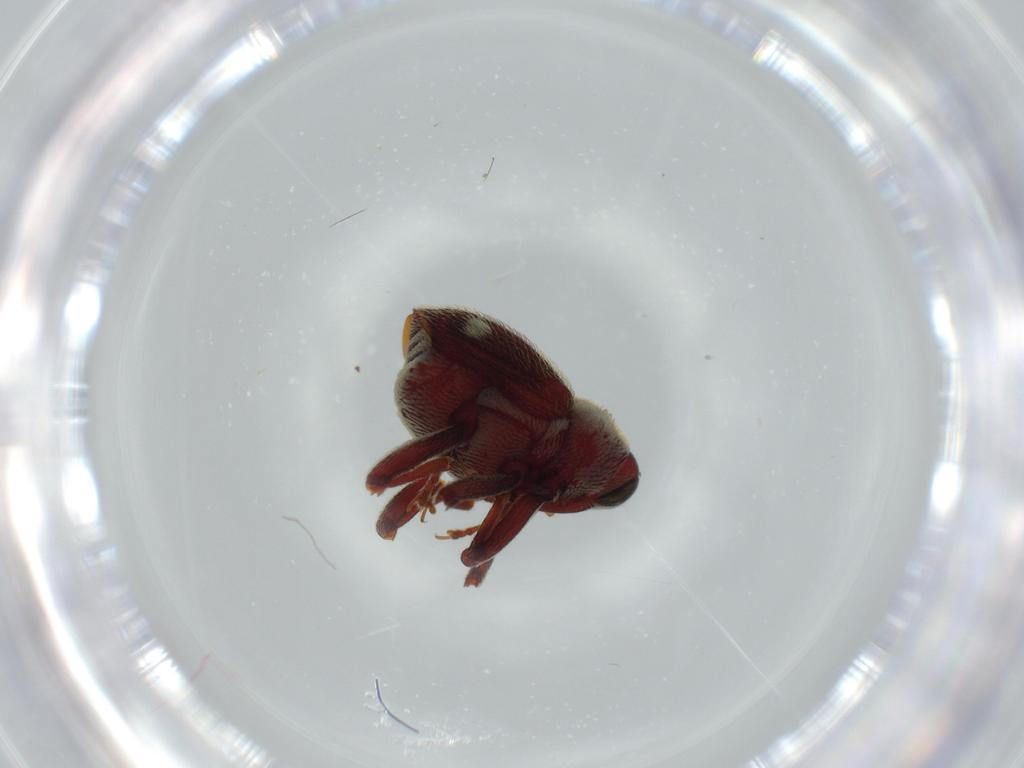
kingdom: Animalia
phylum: Arthropoda
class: Insecta
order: Coleoptera
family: Curculionidae
